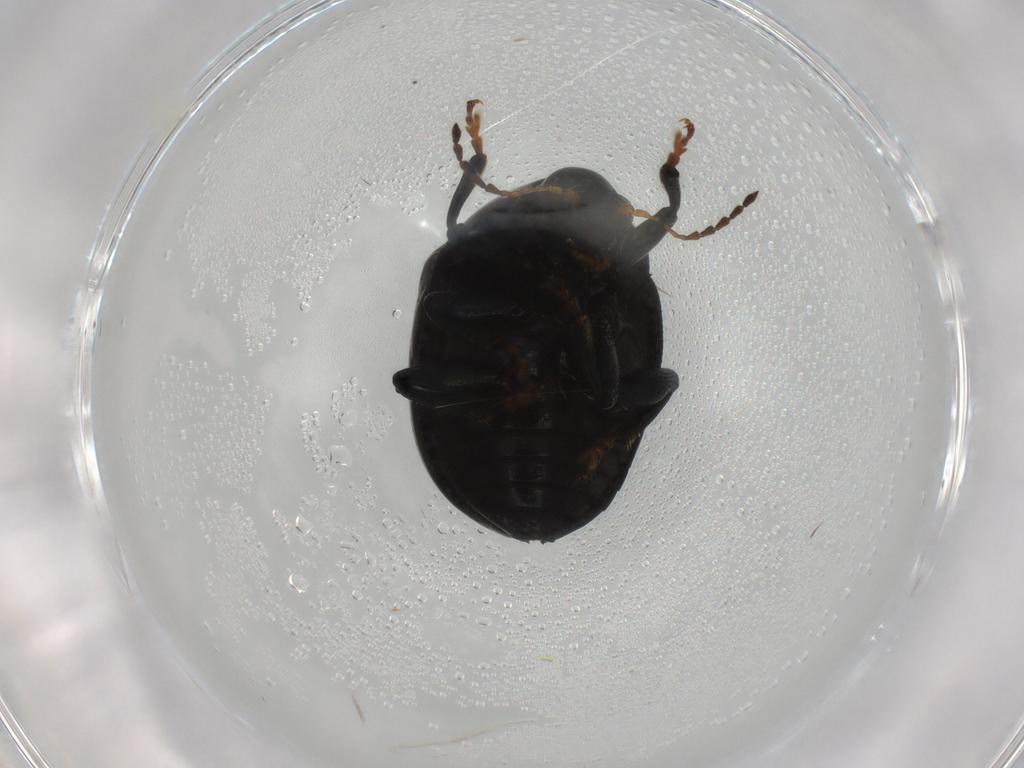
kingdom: Animalia
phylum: Arthropoda
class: Insecta
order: Coleoptera
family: Chrysomelidae
